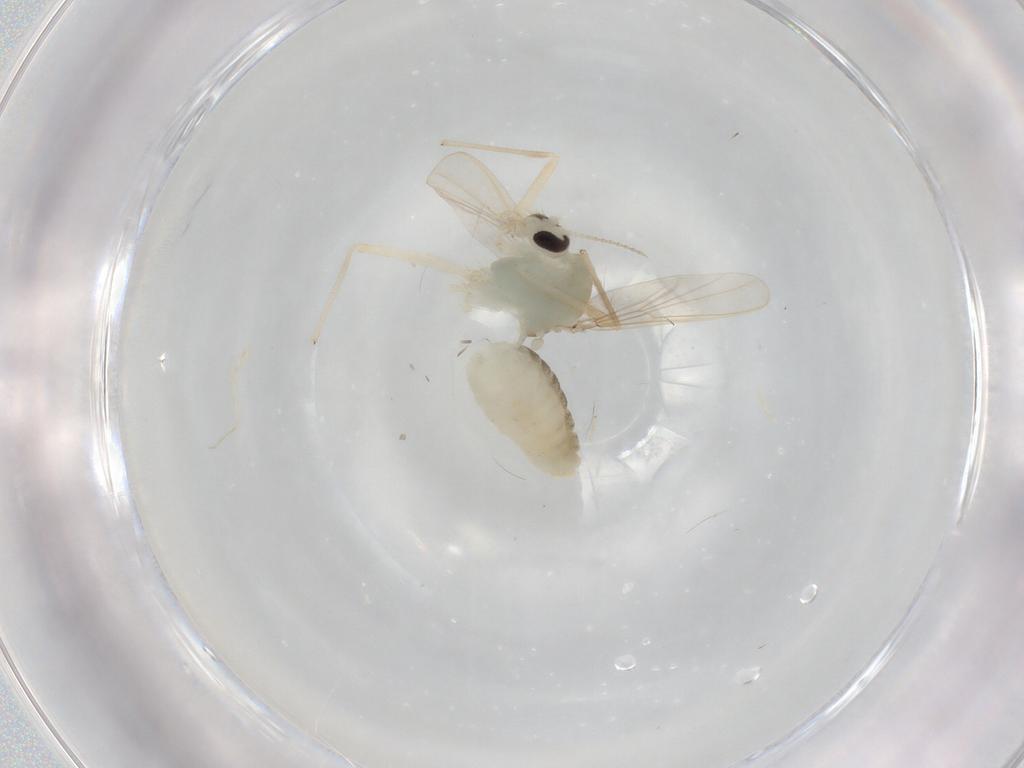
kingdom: Animalia
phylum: Arthropoda
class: Insecta
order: Diptera
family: Chironomidae
